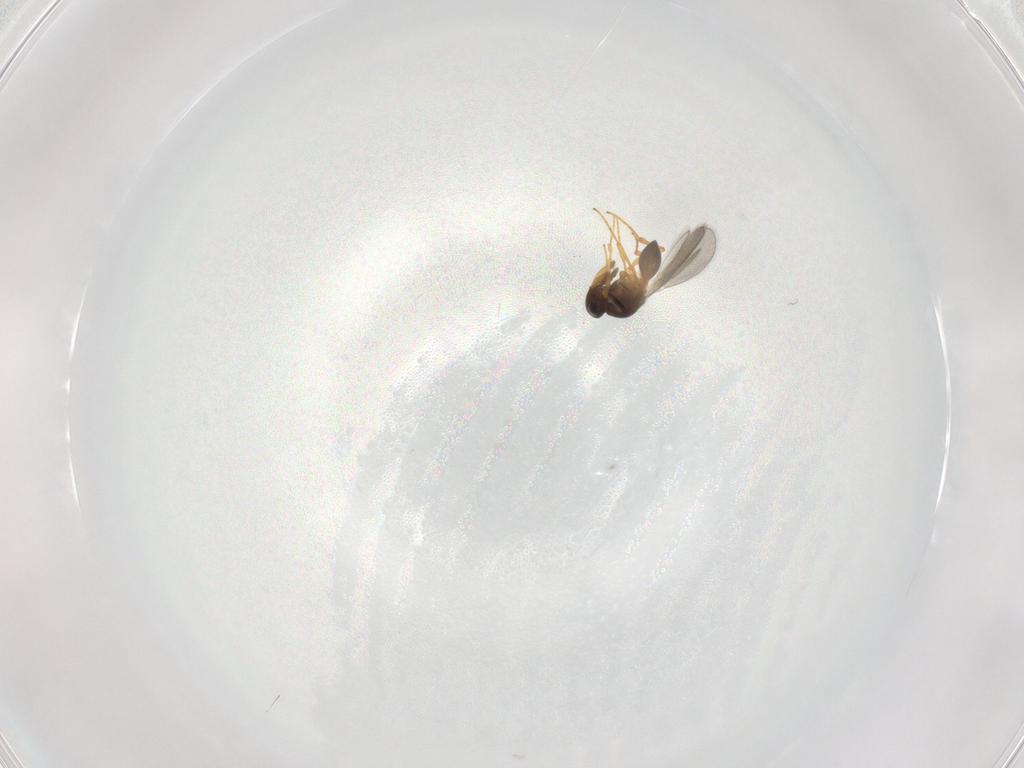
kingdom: Animalia
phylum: Arthropoda
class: Insecta
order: Hymenoptera
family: Platygastridae
